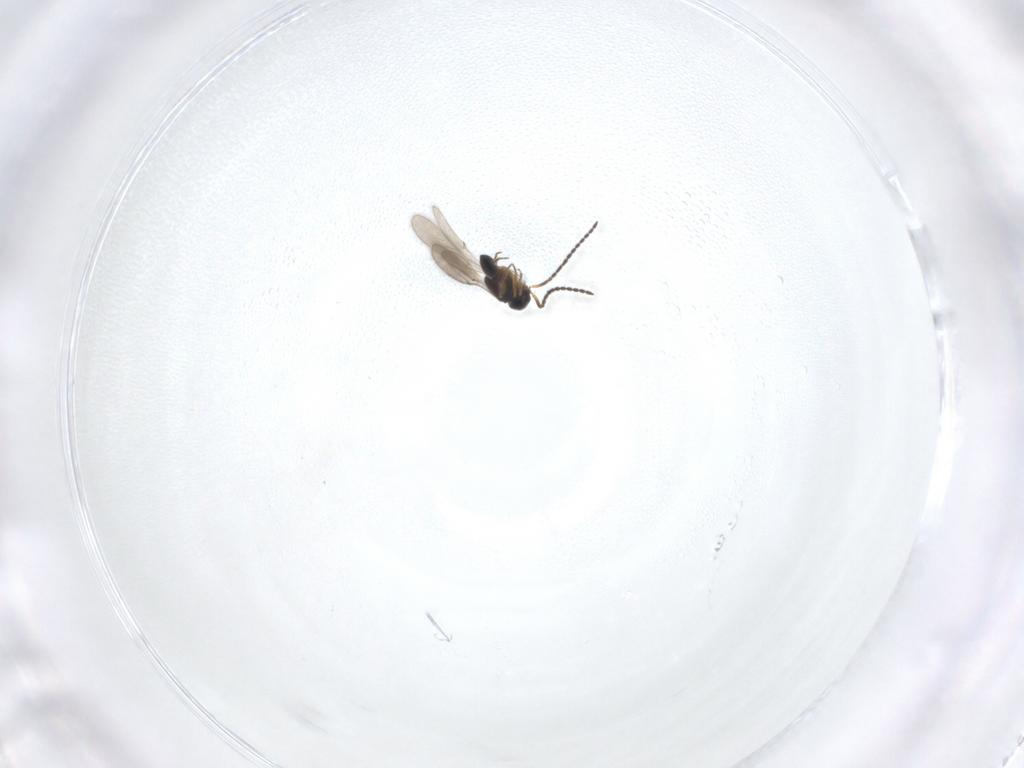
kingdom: Animalia
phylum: Arthropoda
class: Insecta
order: Hymenoptera
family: Scelionidae
